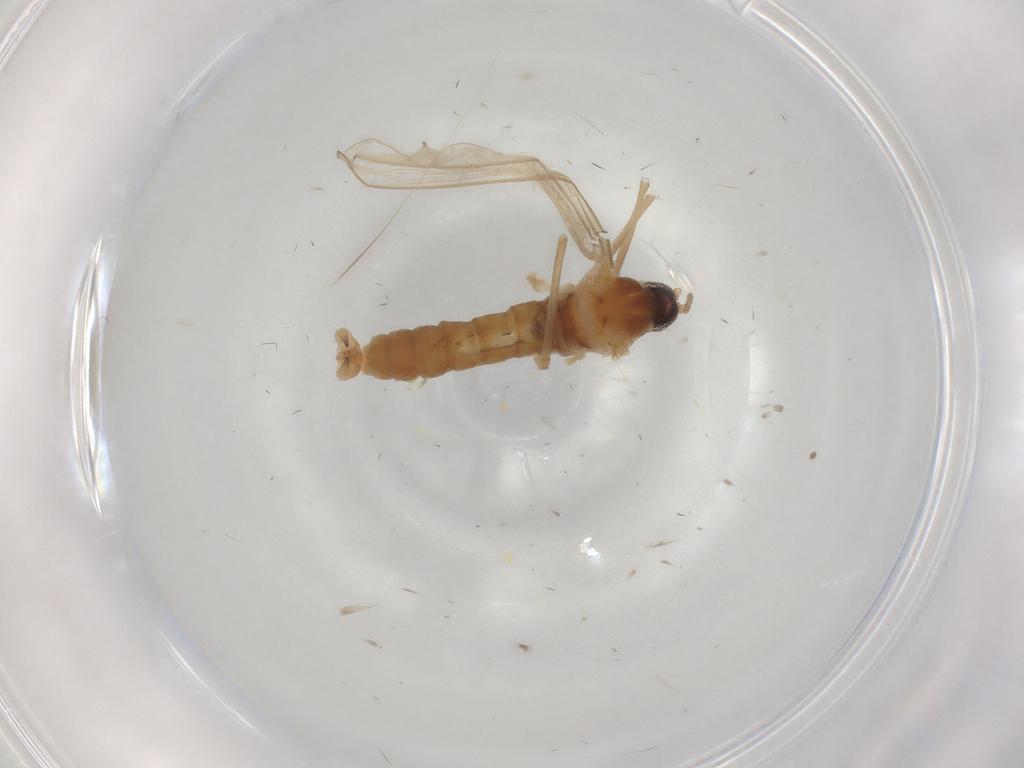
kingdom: Animalia
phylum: Arthropoda
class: Insecta
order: Diptera
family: Cecidomyiidae
